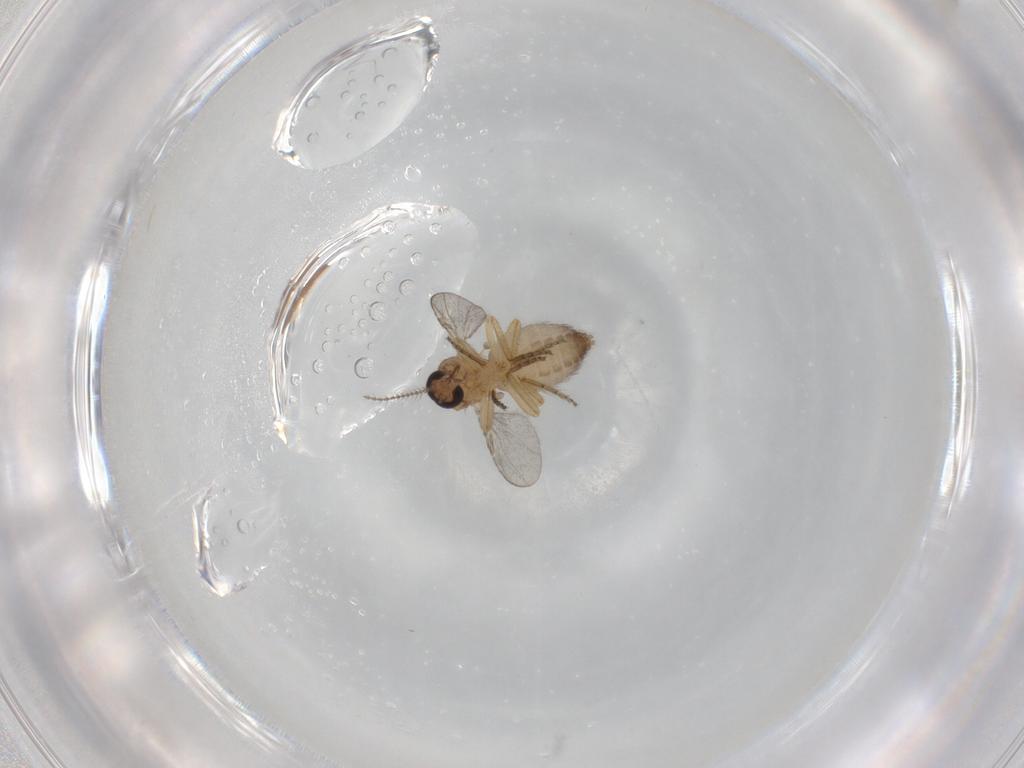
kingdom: Animalia
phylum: Arthropoda
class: Insecta
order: Diptera
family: Ceratopogonidae
